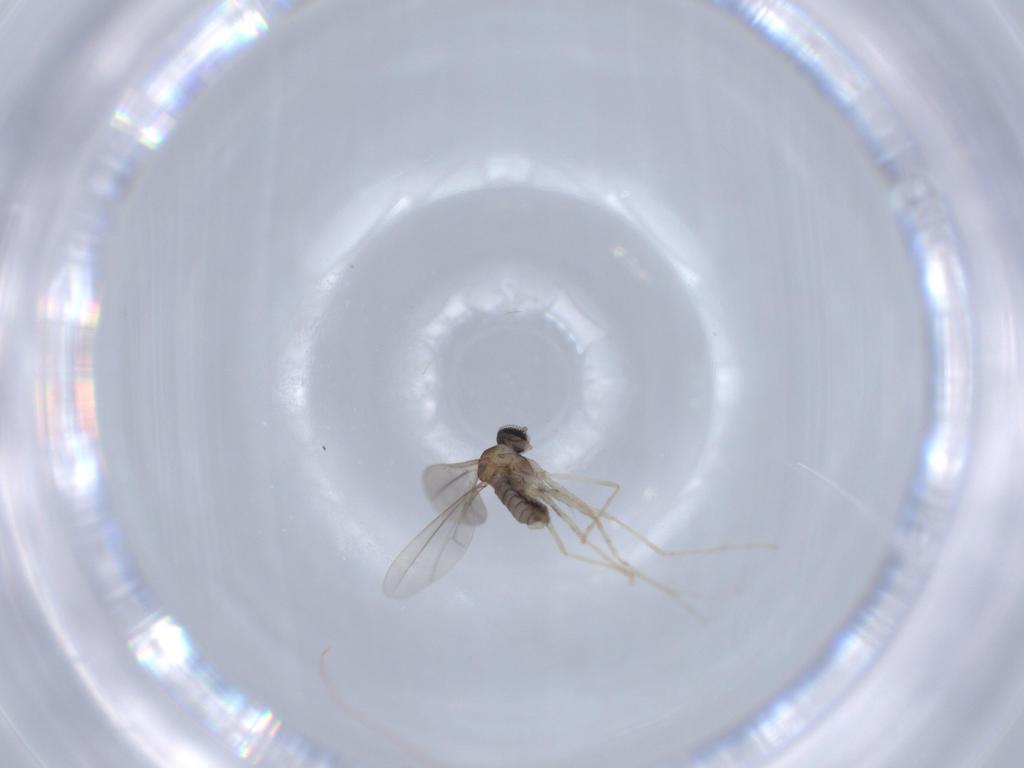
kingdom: Animalia
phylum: Arthropoda
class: Insecta
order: Diptera
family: Cecidomyiidae
